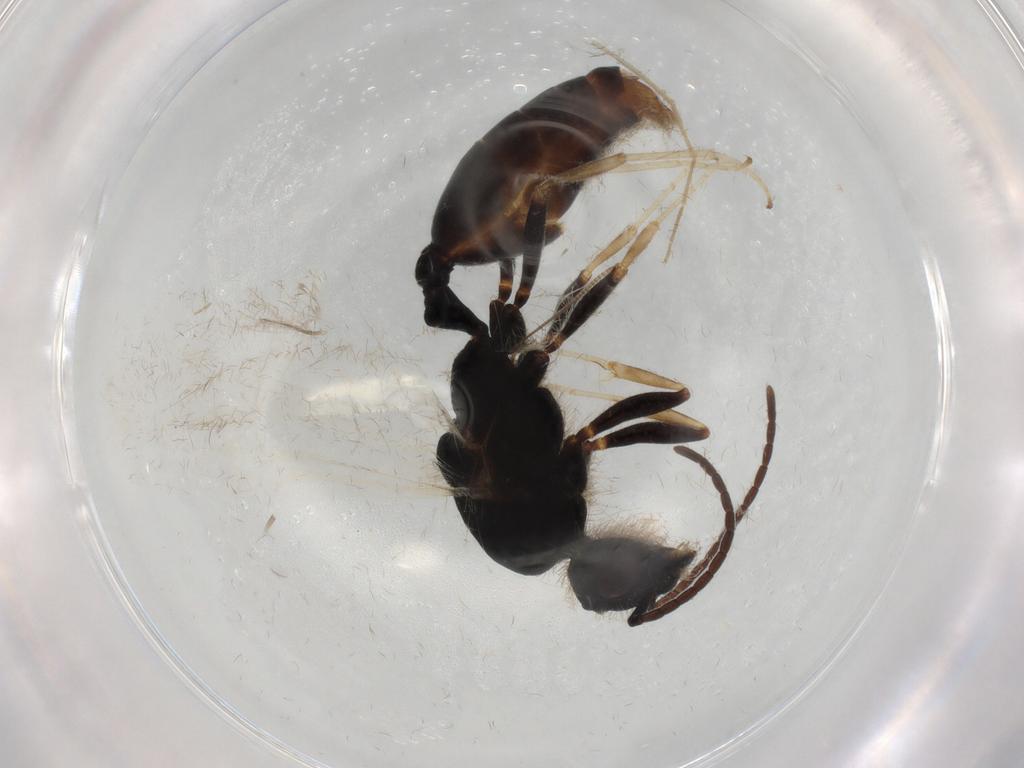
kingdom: Animalia
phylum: Arthropoda
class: Insecta
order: Hymenoptera
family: Formicidae
